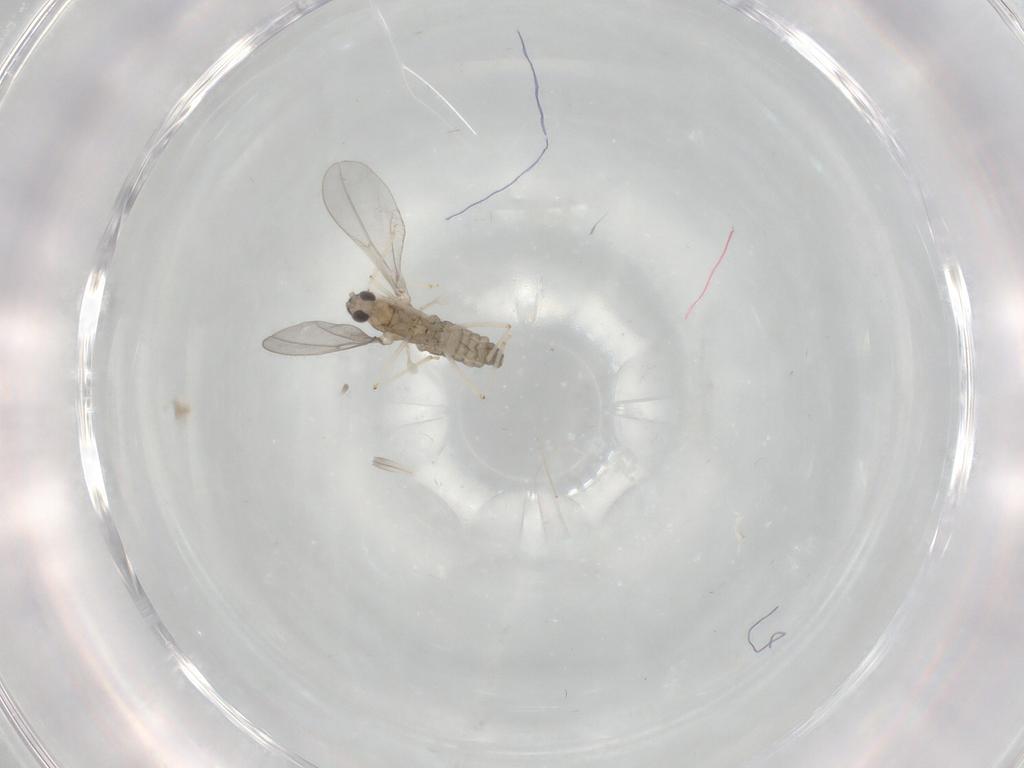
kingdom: Animalia
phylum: Arthropoda
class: Insecta
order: Diptera
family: Cecidomyiidae
